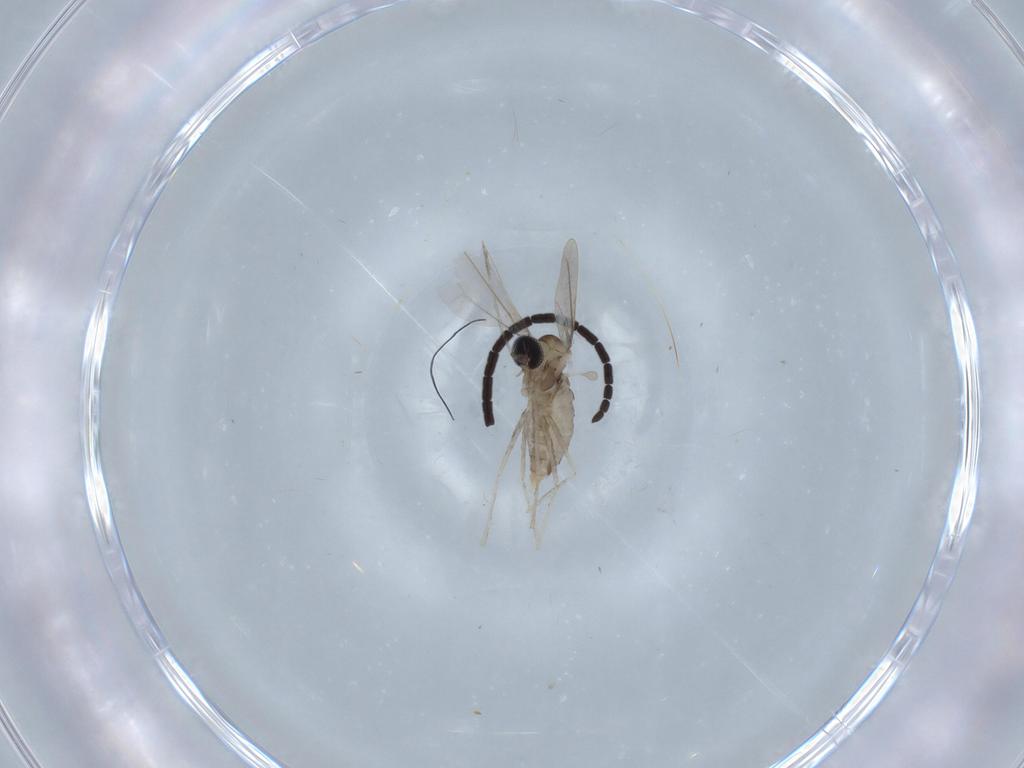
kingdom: Animalia
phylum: Arthropoda
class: Insecta
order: Diptera
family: Cecidomyiidae
